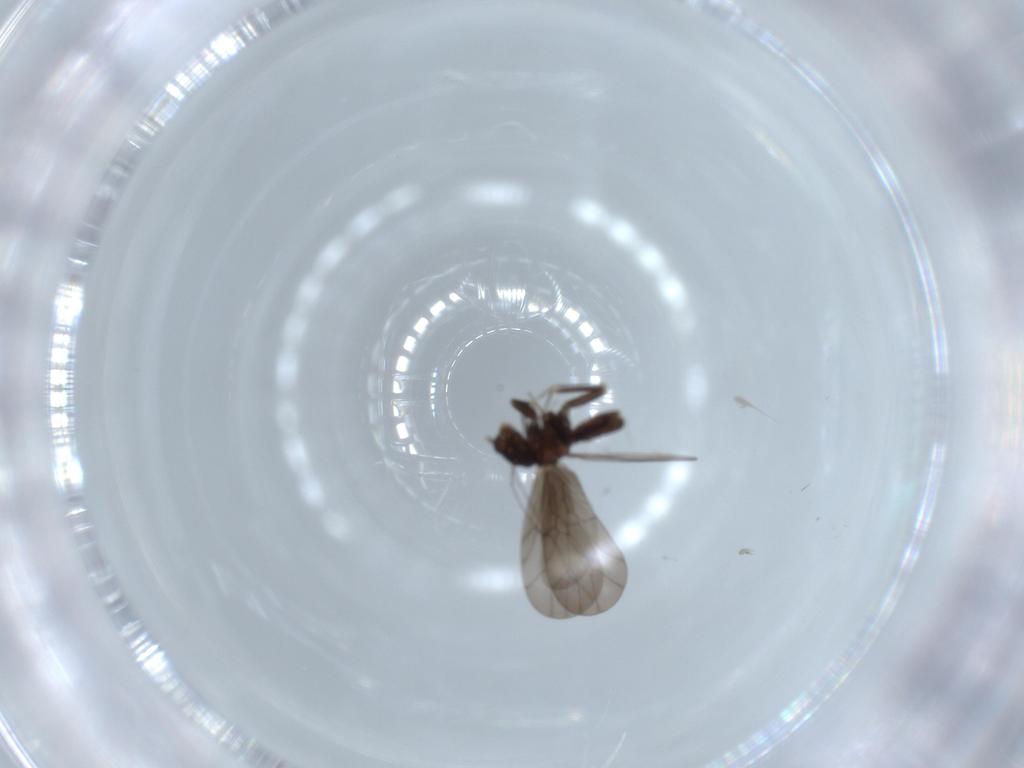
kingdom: Animalia
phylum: Arthropoda
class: Insecta
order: Psocodea
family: Lepidopsocidae
